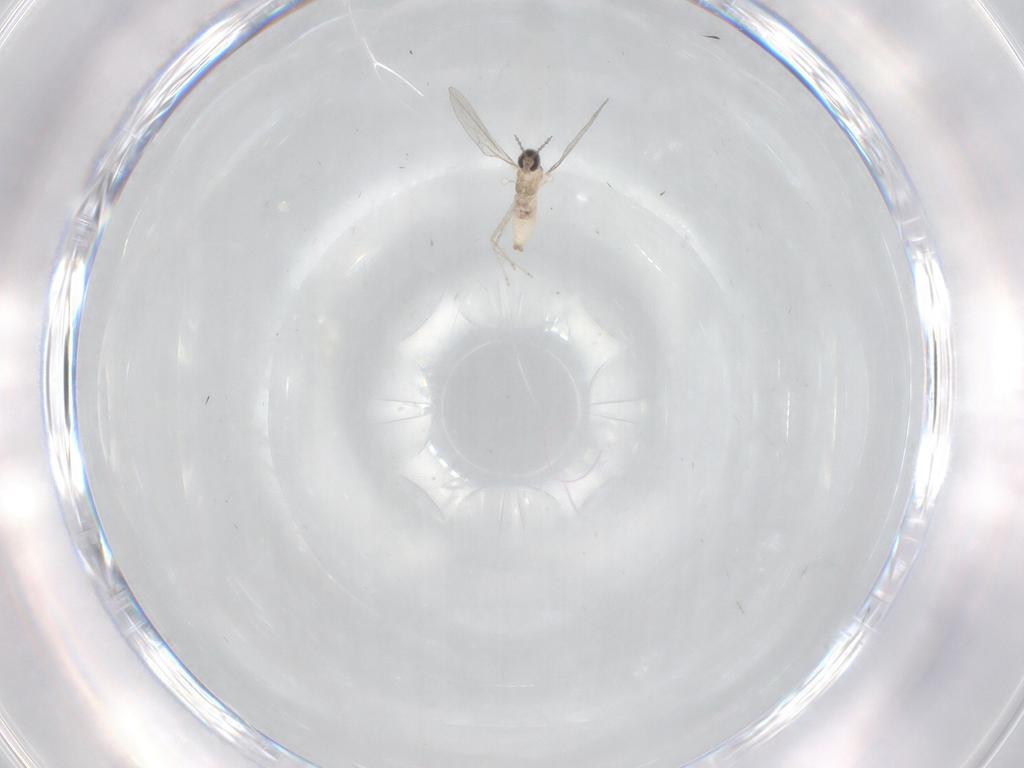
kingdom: Animalia
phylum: Arthropoda
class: Insecta
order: Diptera
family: Cecidomyiidae
